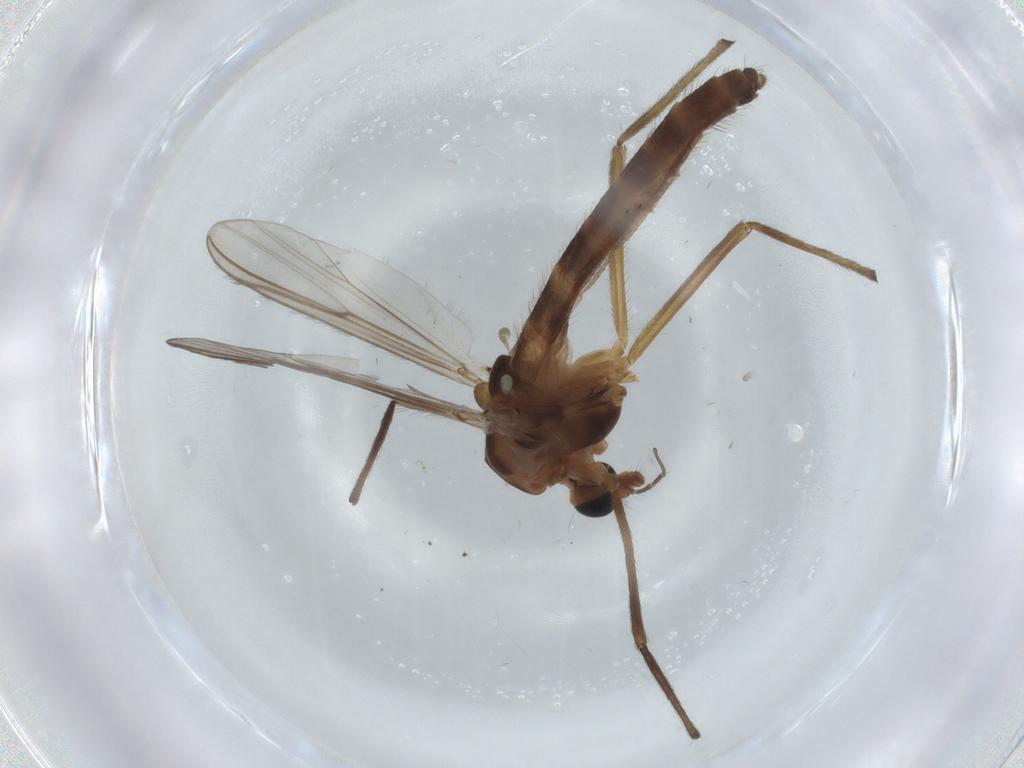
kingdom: Animalia
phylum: Arthropoda
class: Insecta
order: Diptera
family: Chironomidae
